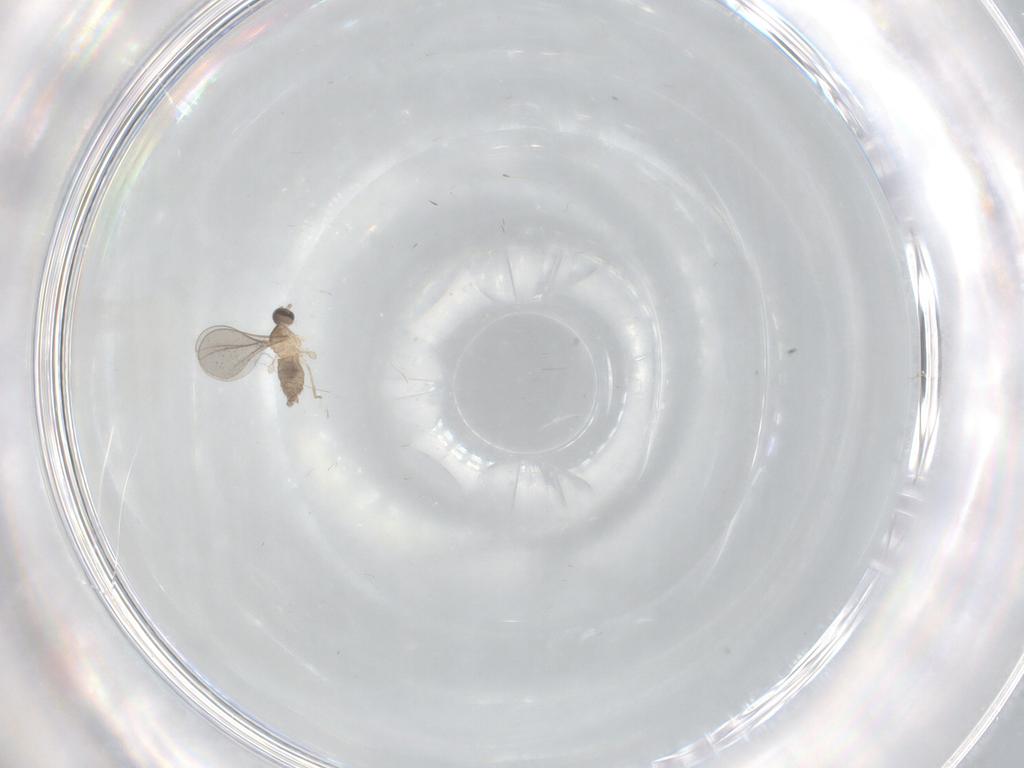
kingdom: Animalia
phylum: Arthropoda
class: Insecta
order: Diptera
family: Cecidomyiidae
